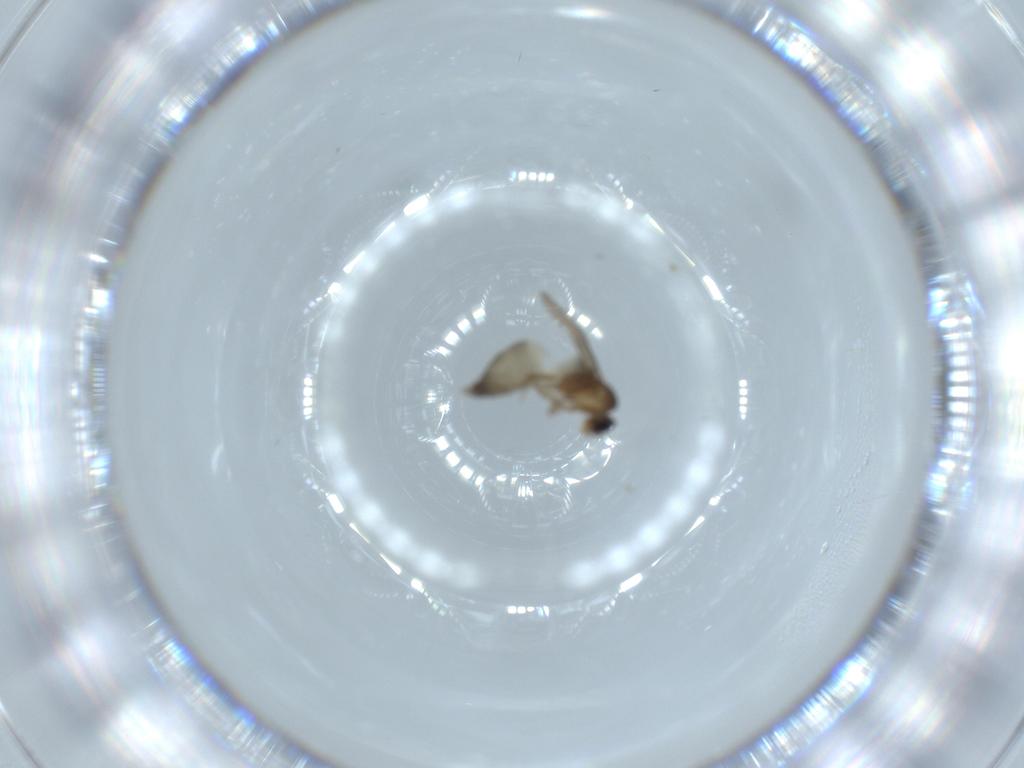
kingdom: Animalia
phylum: Arthropoda
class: Insecta
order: Diptera
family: Phoridae
